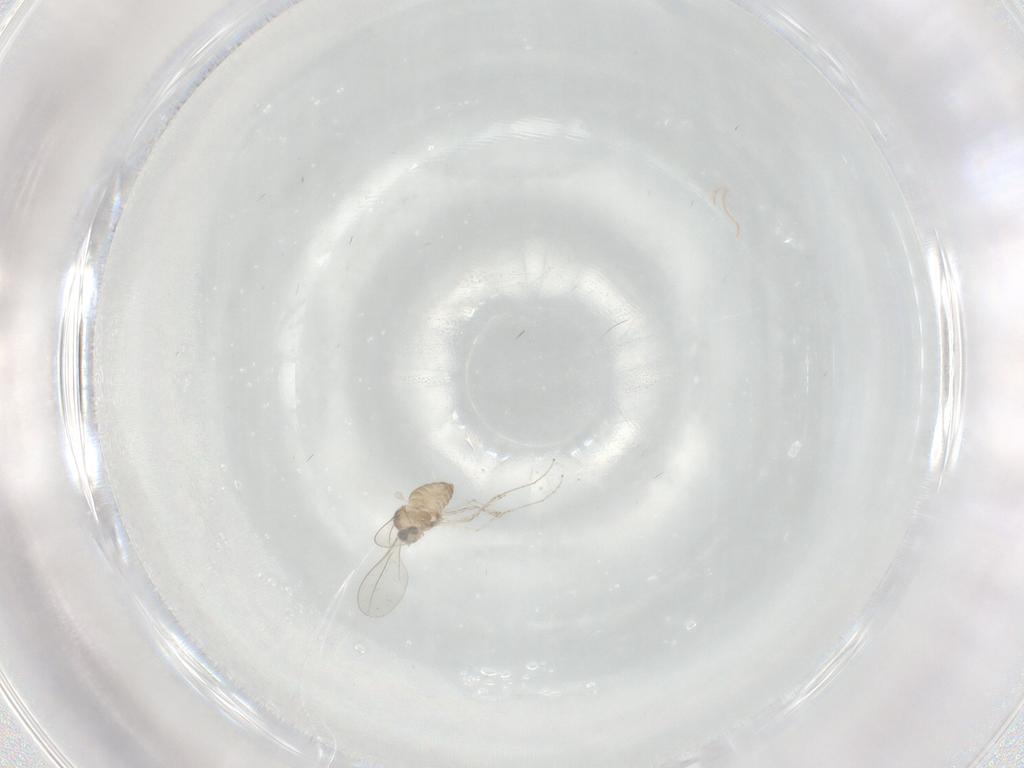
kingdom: Animalia
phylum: Arthropoda
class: Insecta
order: Diptera
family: Cecidomyiidae
